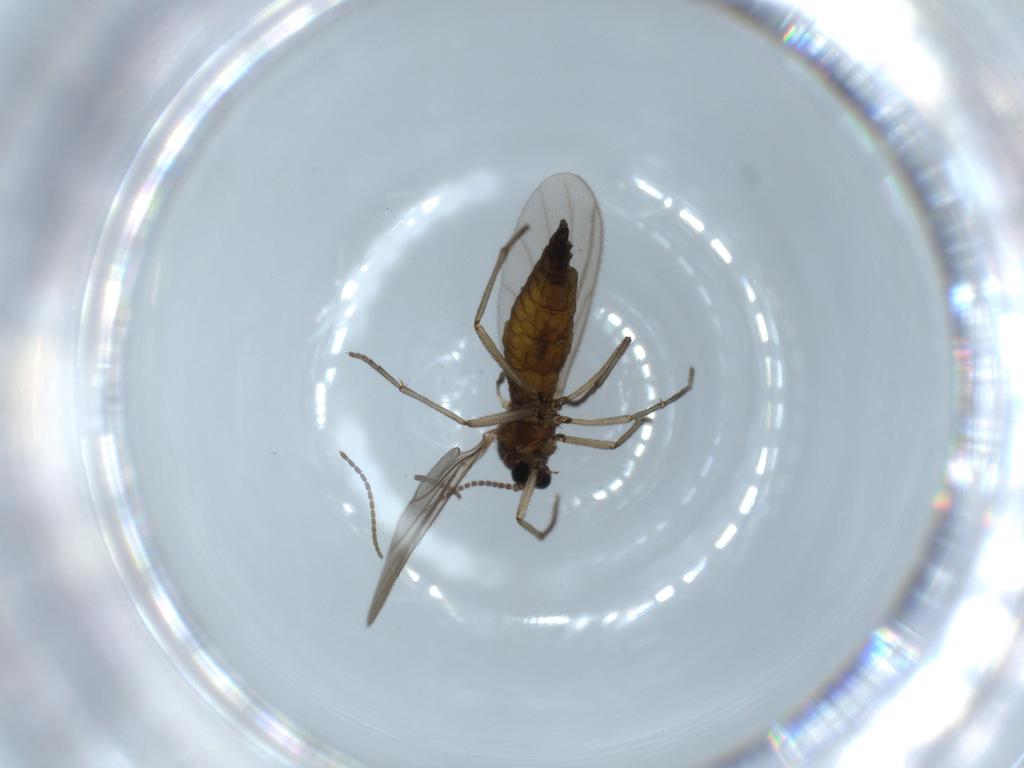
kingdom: Animalia
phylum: Arthropoda
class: Insecta
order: Diptera
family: Sciaridae
